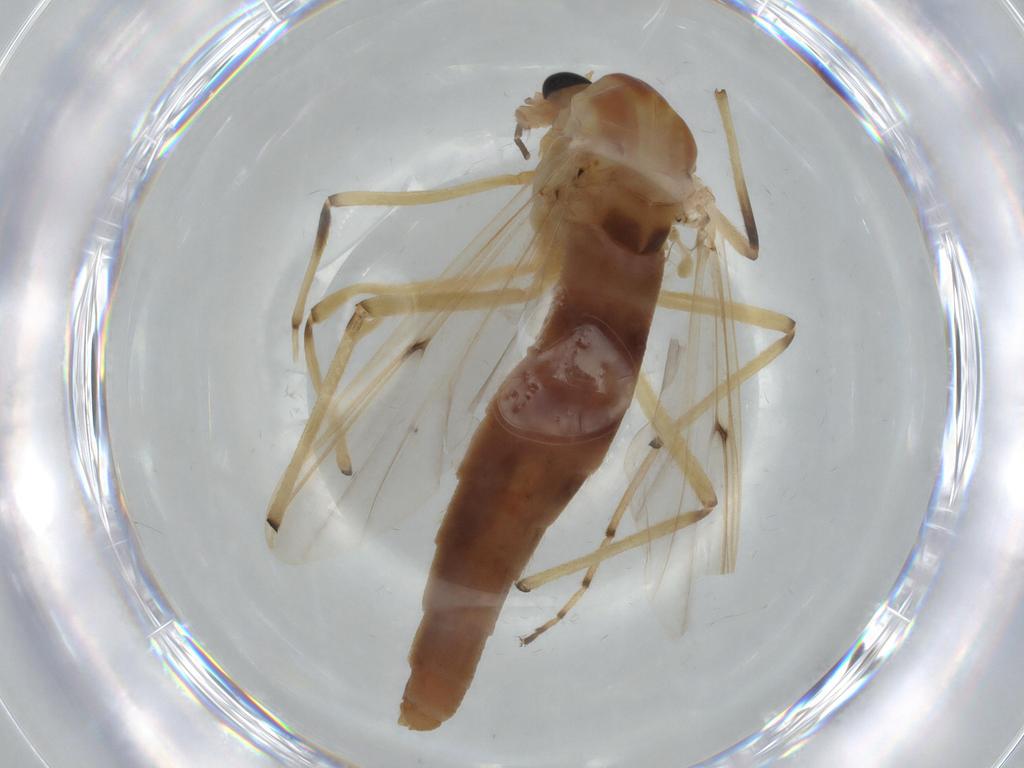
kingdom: Animalia
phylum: Arthropoda
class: Insecta
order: Diptera
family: Chironomidae
